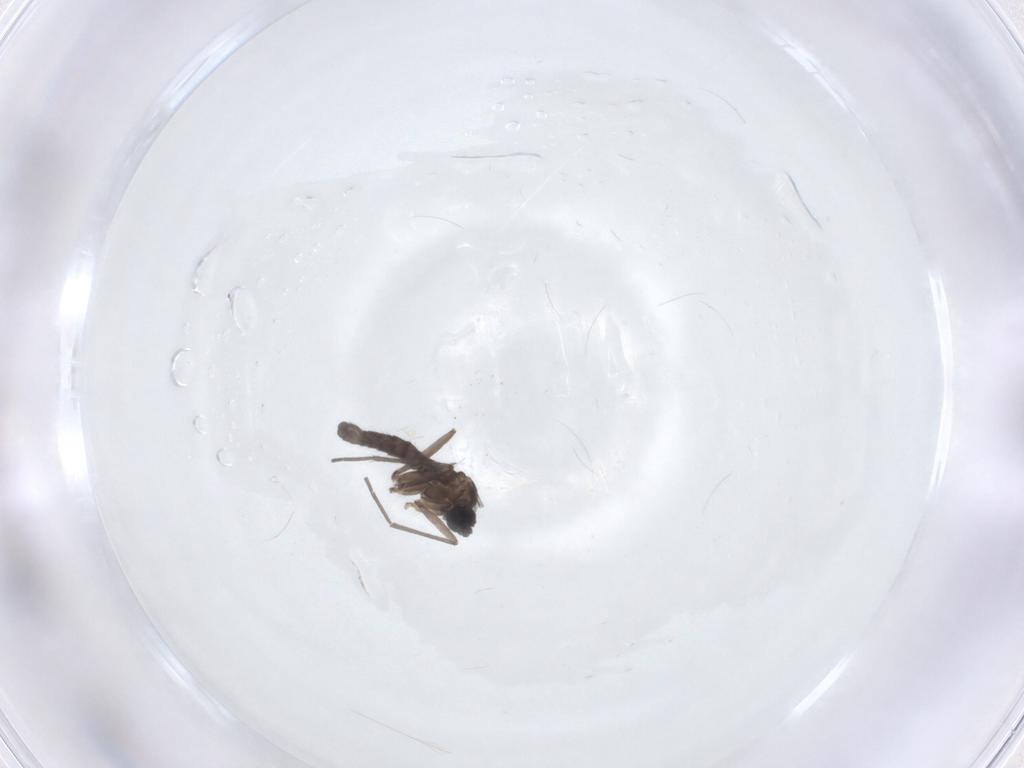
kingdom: Animalia
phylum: Arthropoda
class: Insecta
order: Diptera
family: Sciaridae
